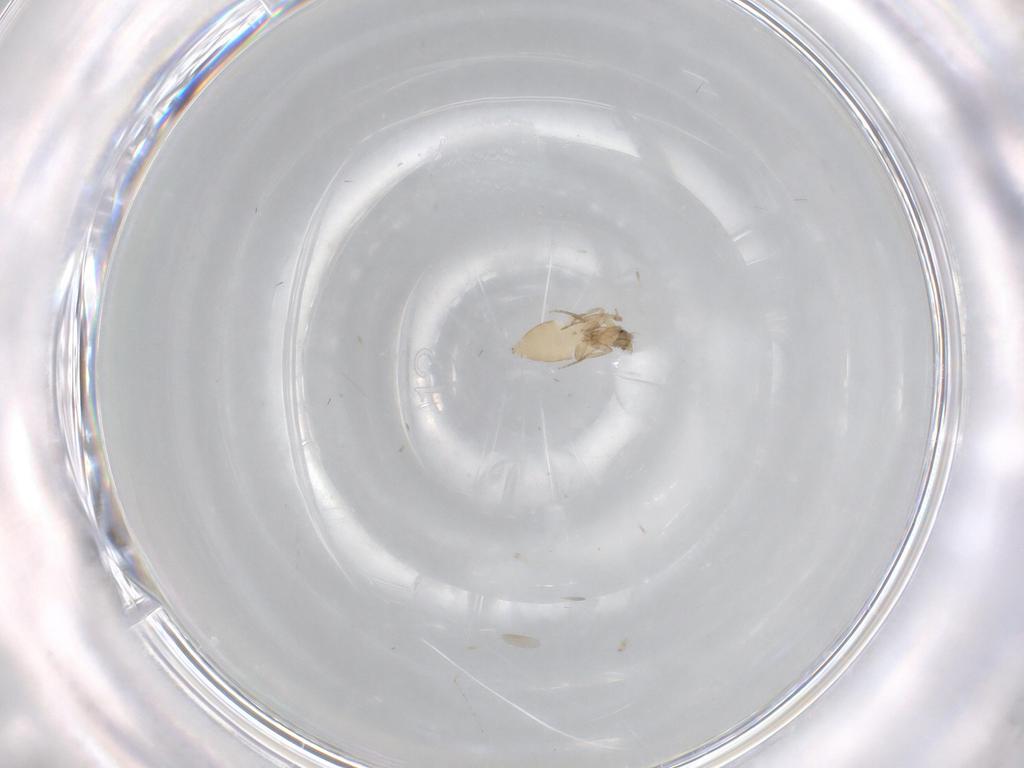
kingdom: Animalia
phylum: Arthropoda
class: Insecta
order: Diptera
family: Phoridae
